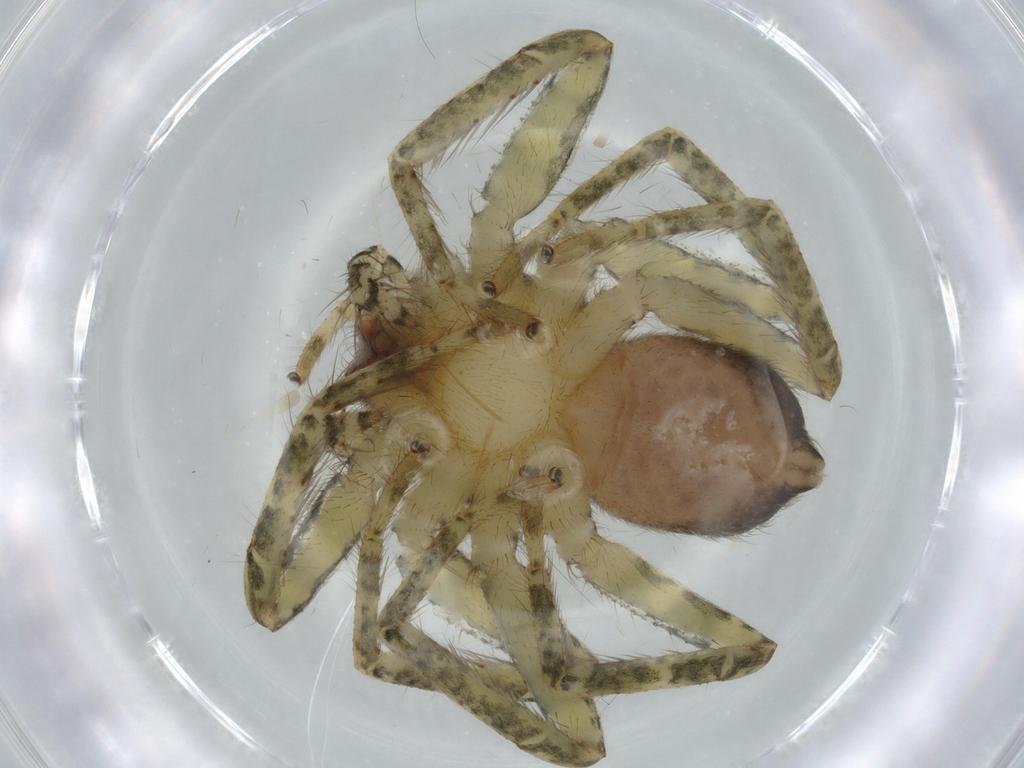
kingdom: Animalia
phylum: Arthropoda
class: Arachnida
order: Araneae
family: Selenopidae
